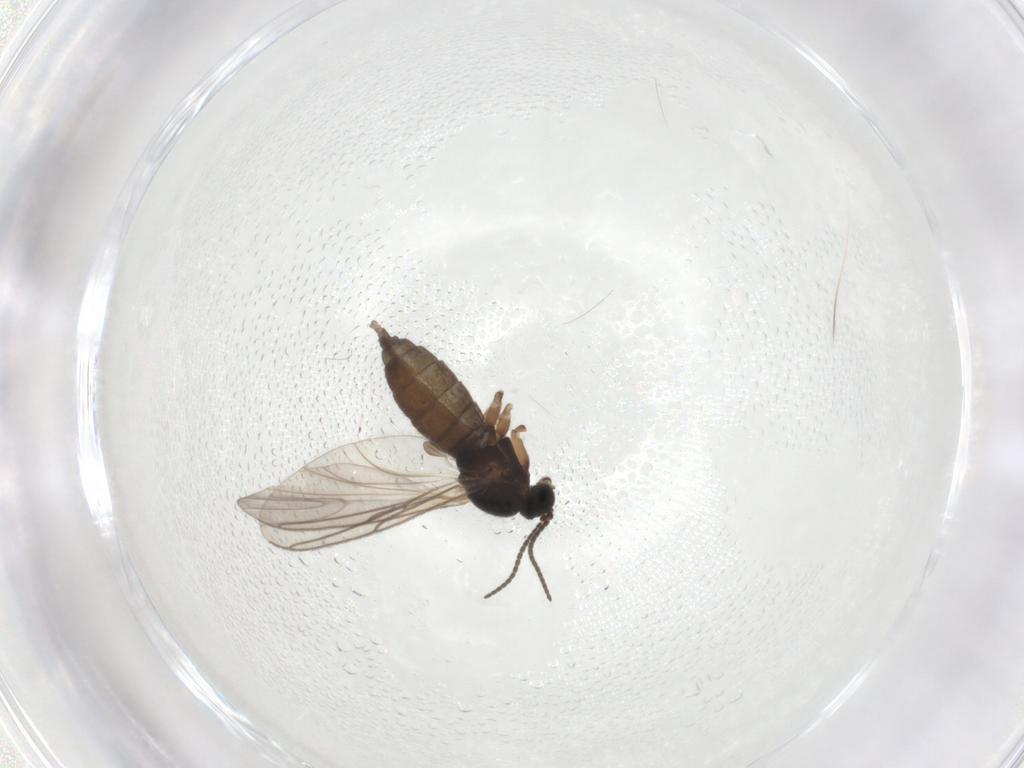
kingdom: Animalia
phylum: Arthropoda
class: Insecta
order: Diptera
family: Sciaridae
